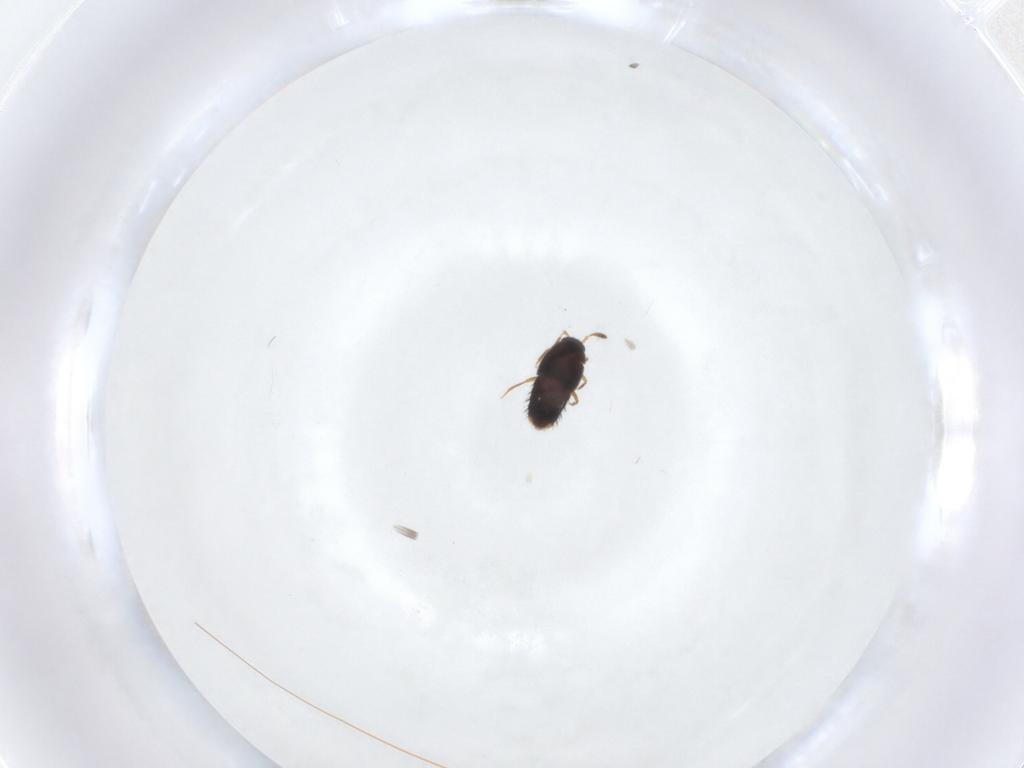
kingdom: Animalia
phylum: Arthropoda
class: Insecta
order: Coleoptera
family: Staphylinidae
